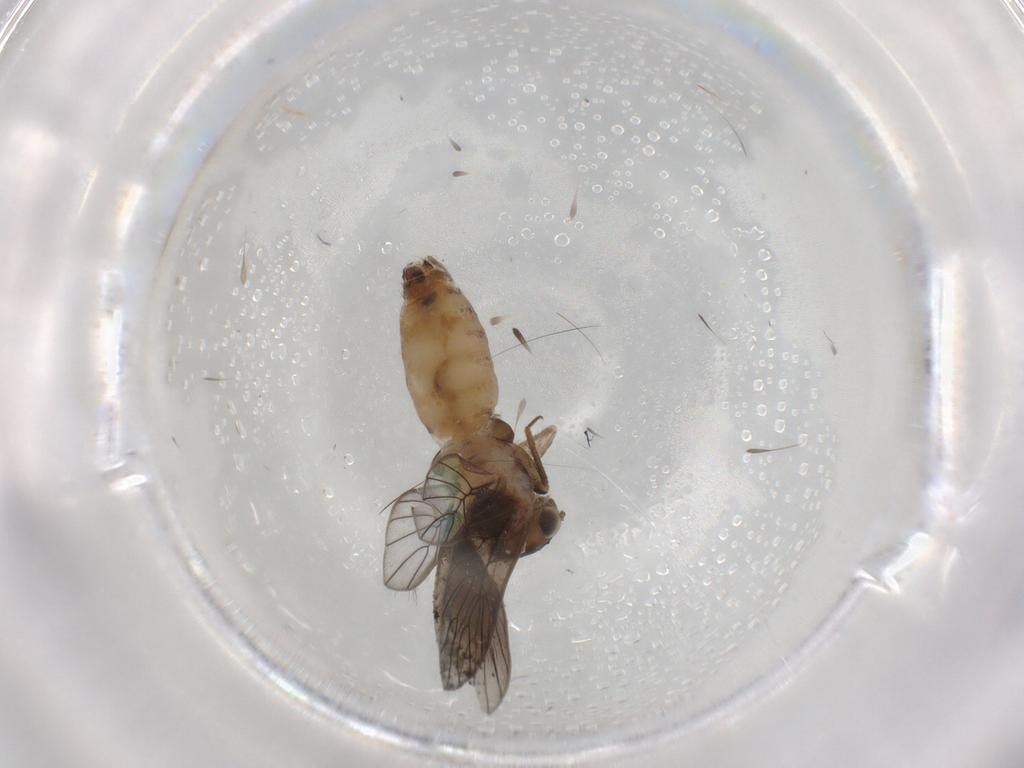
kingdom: Animalia
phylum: Arthropoda
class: Insecta
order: Psocodea
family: Lepidopsocidae
